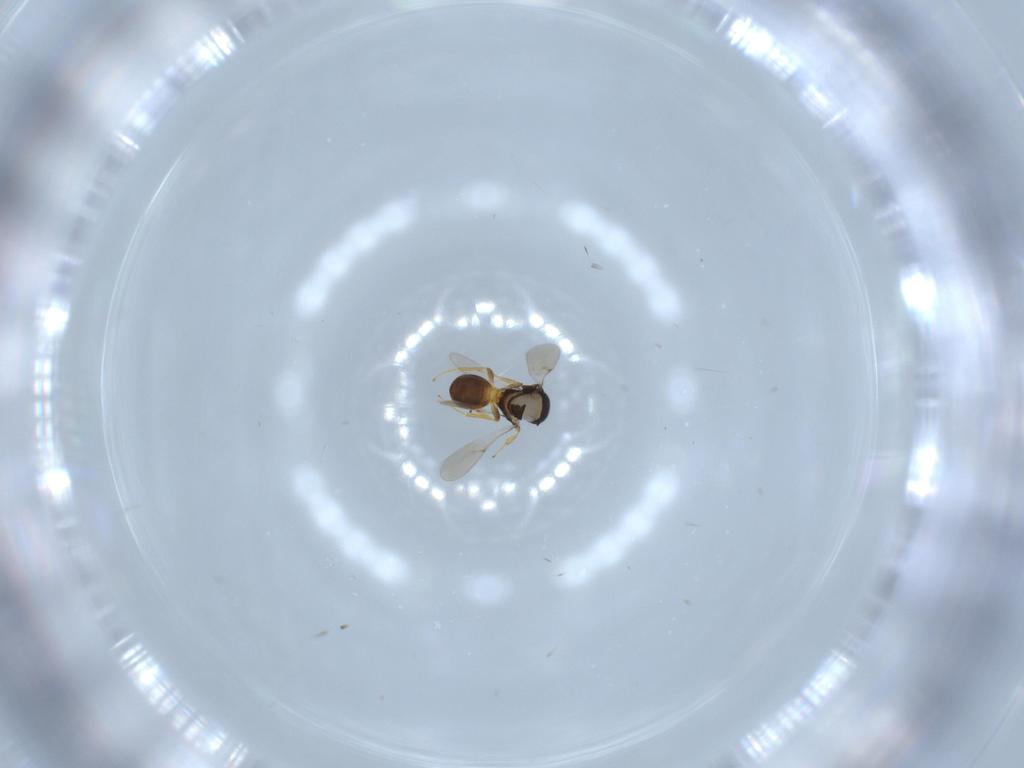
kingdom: Animalia
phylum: Arthropoda
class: Insecta
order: Hymenoptera
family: Scelionidae
